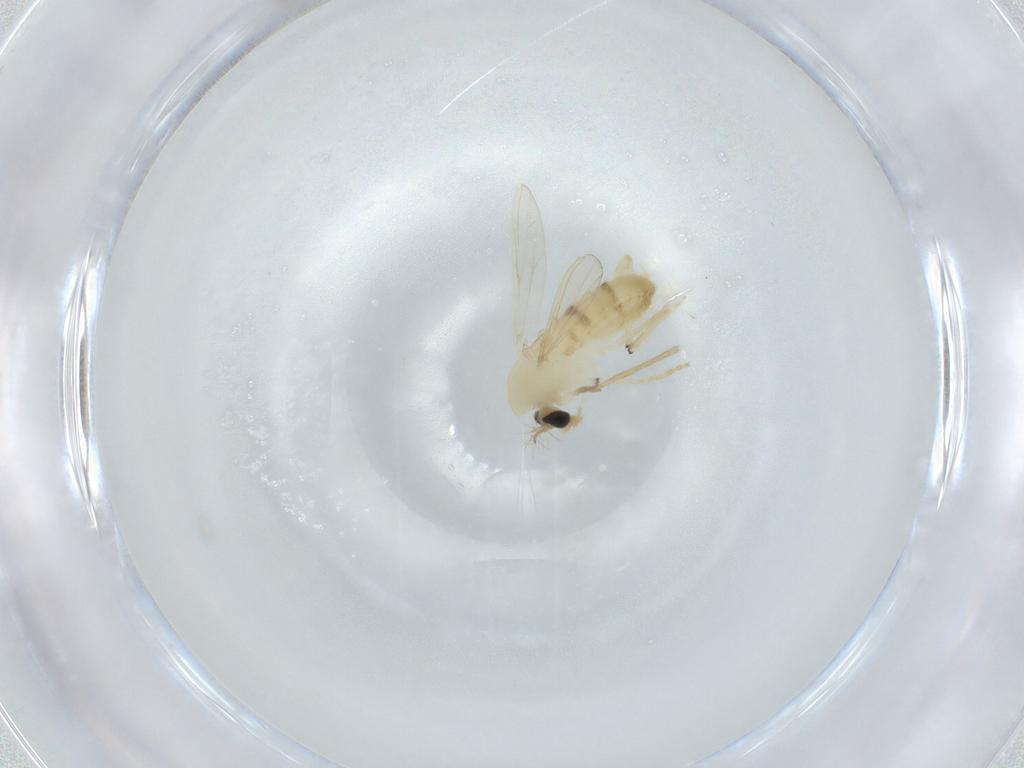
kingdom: Animalia
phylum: Arthropoda
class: Insecta
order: Diptera
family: Chironomidae
